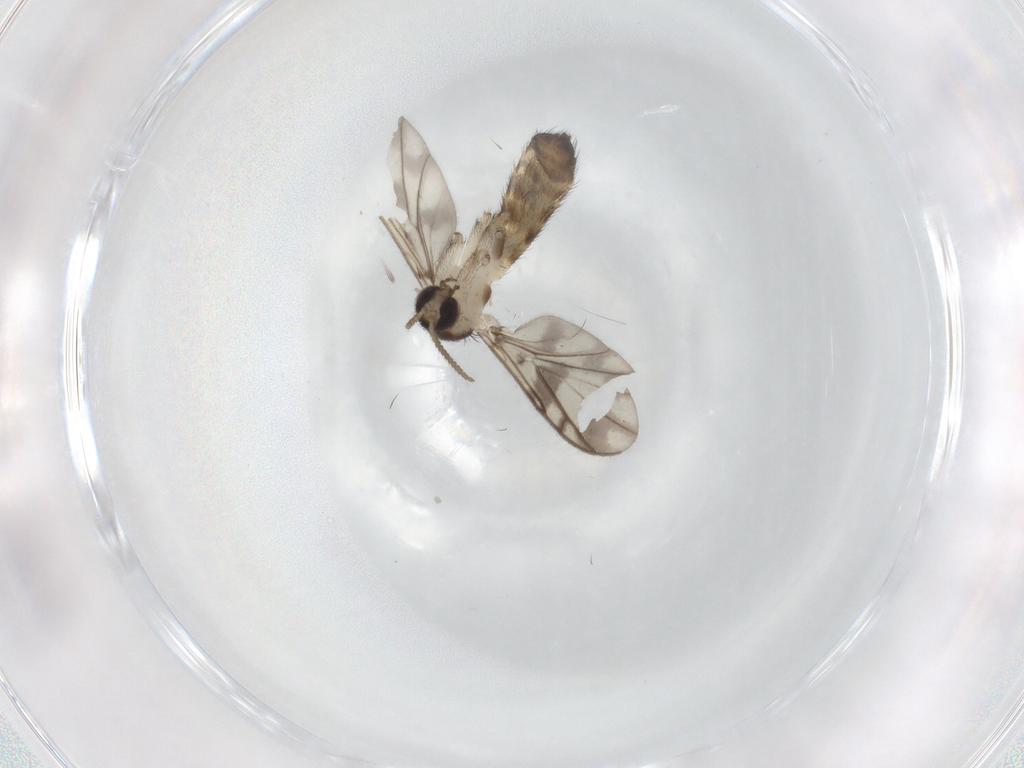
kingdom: Animalia
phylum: Arthropoda
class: Insecta
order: Diptera
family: Keroplatidae
